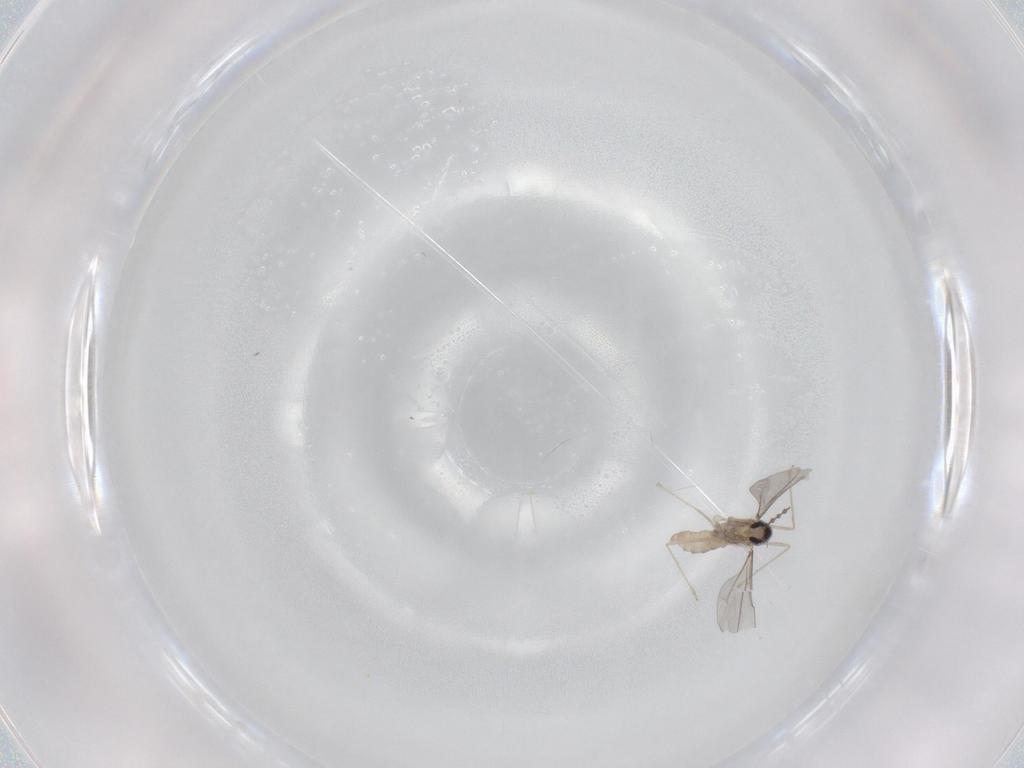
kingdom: Animalia
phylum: Arthropoda
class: Insecta
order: Diptera
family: Cecidomyiidae
